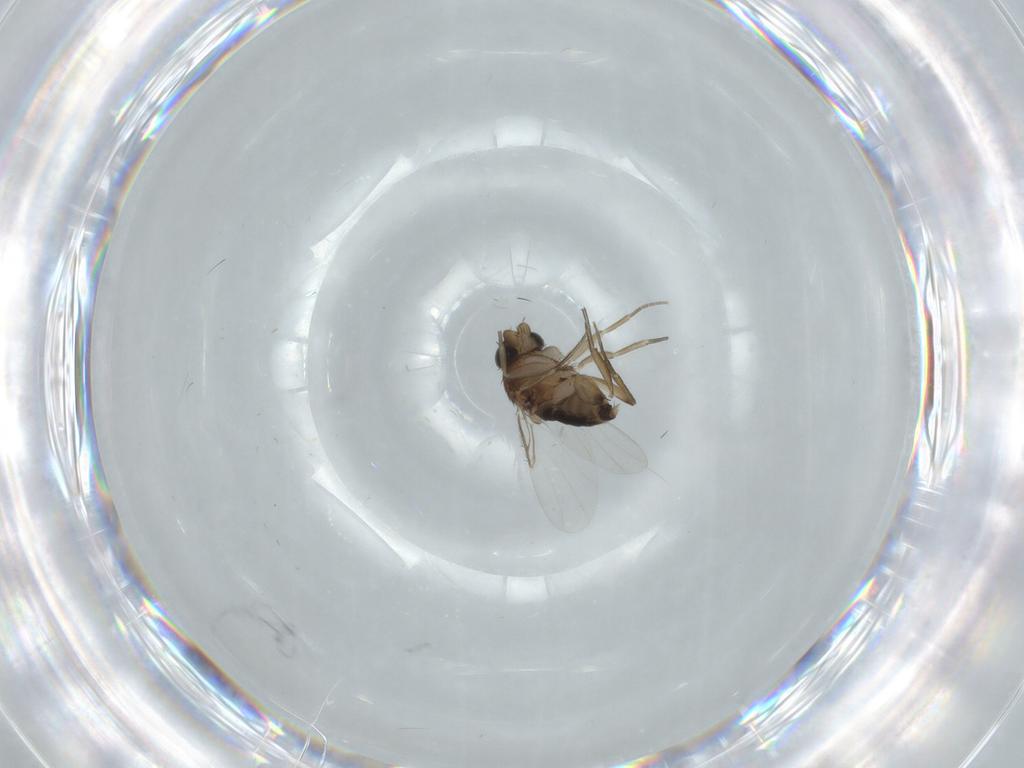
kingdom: Animalia
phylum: Arthropoda
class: Insecta
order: Diptera
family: Phoridae
